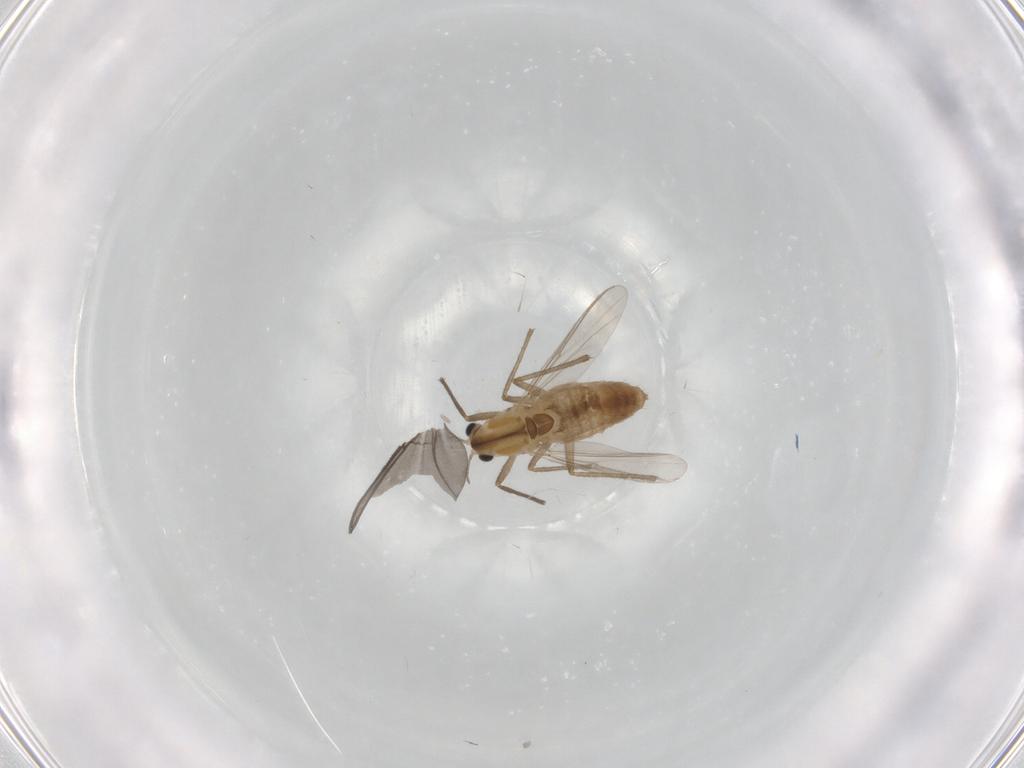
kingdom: Animalia
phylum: Arthropoda
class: Insecta
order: Diptera
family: Chironomidae
